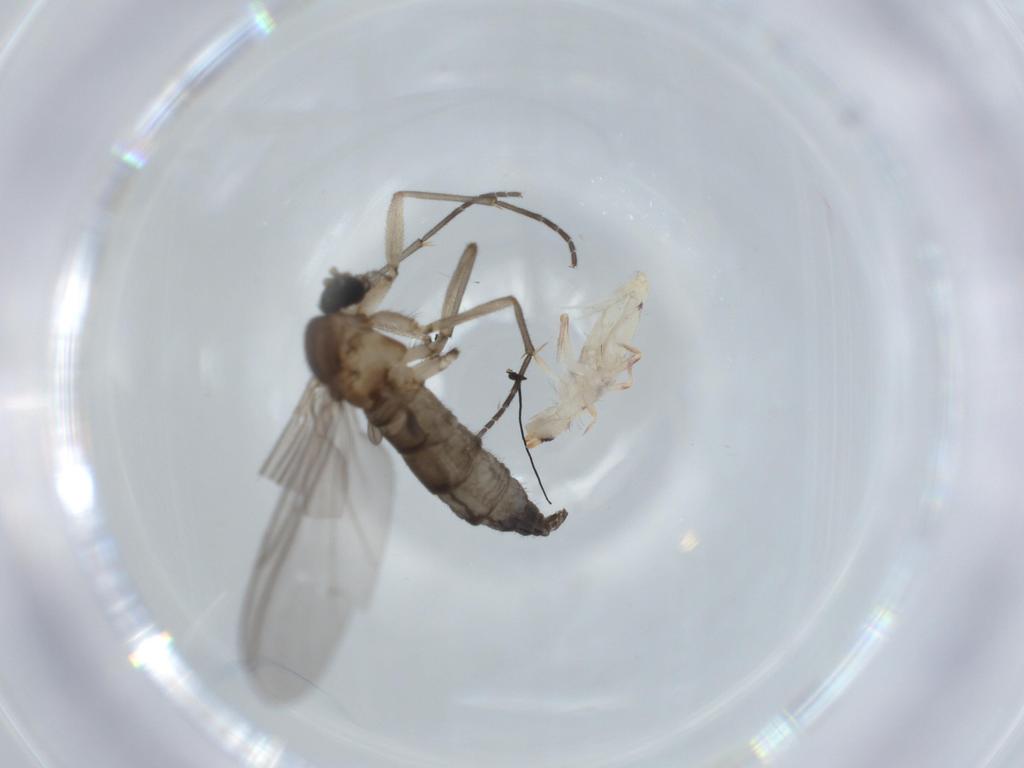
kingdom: Animalia
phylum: Arthropoda
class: Collembola
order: Entomobryomorpha
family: Entomobryidae
